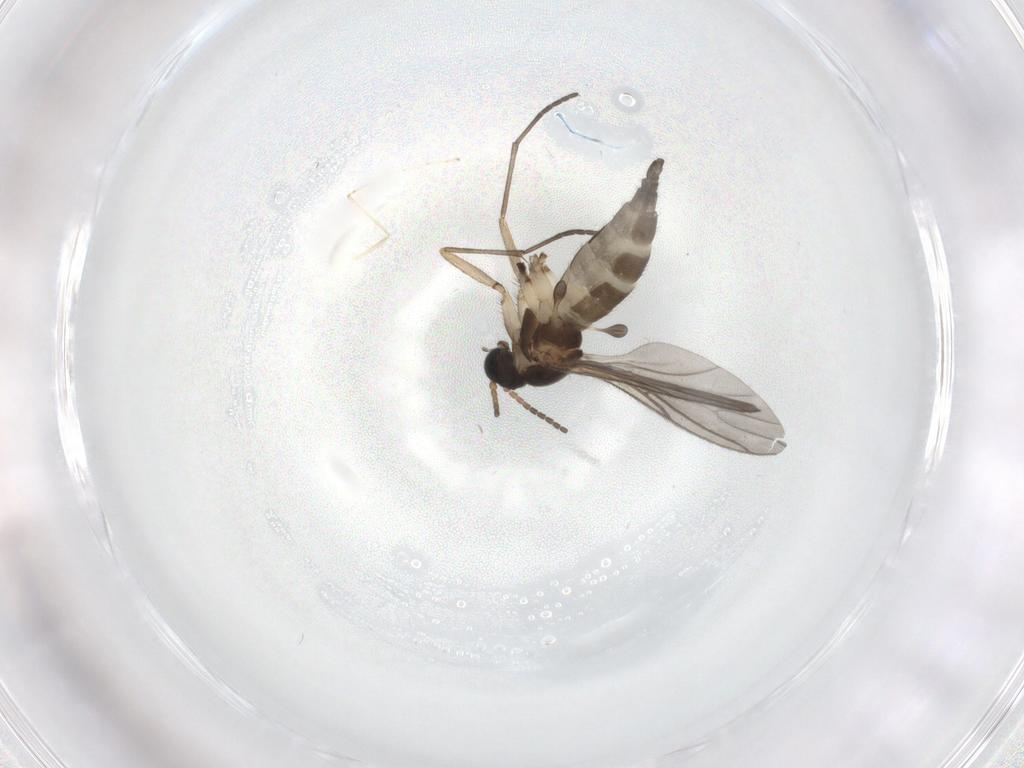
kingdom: Animalia
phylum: Arthropoda
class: Insecta
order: Diptera
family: Sciaridae
